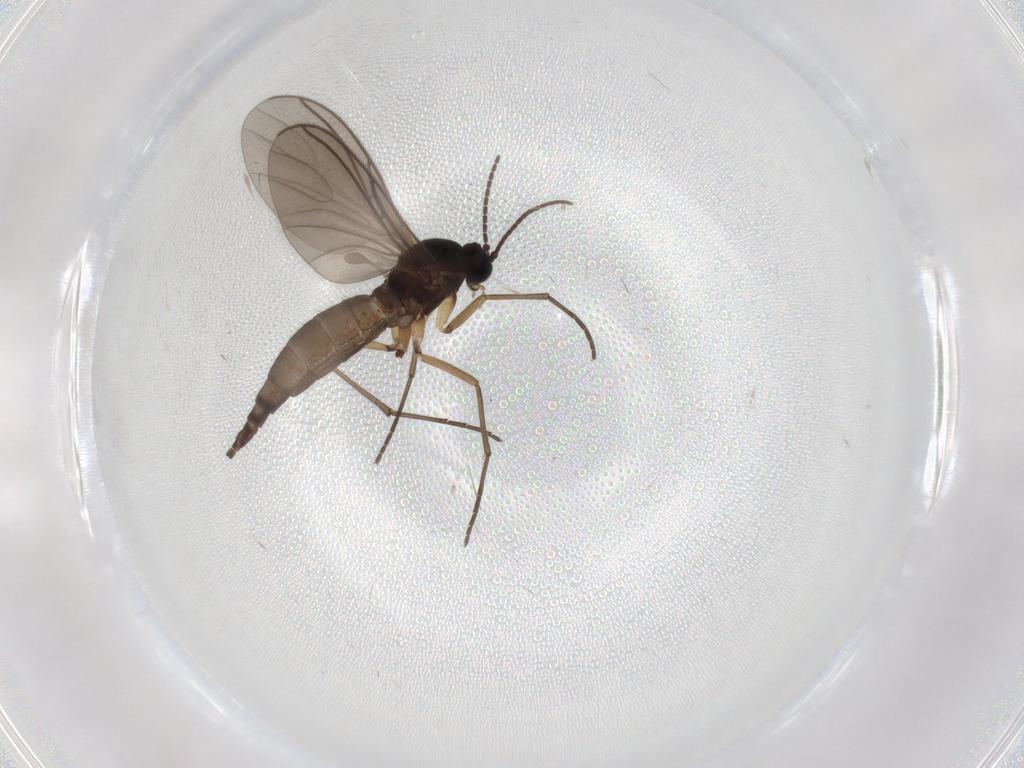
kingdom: Animalia
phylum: Arthropoda
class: Insecta
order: Diptera
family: Sciaridae
